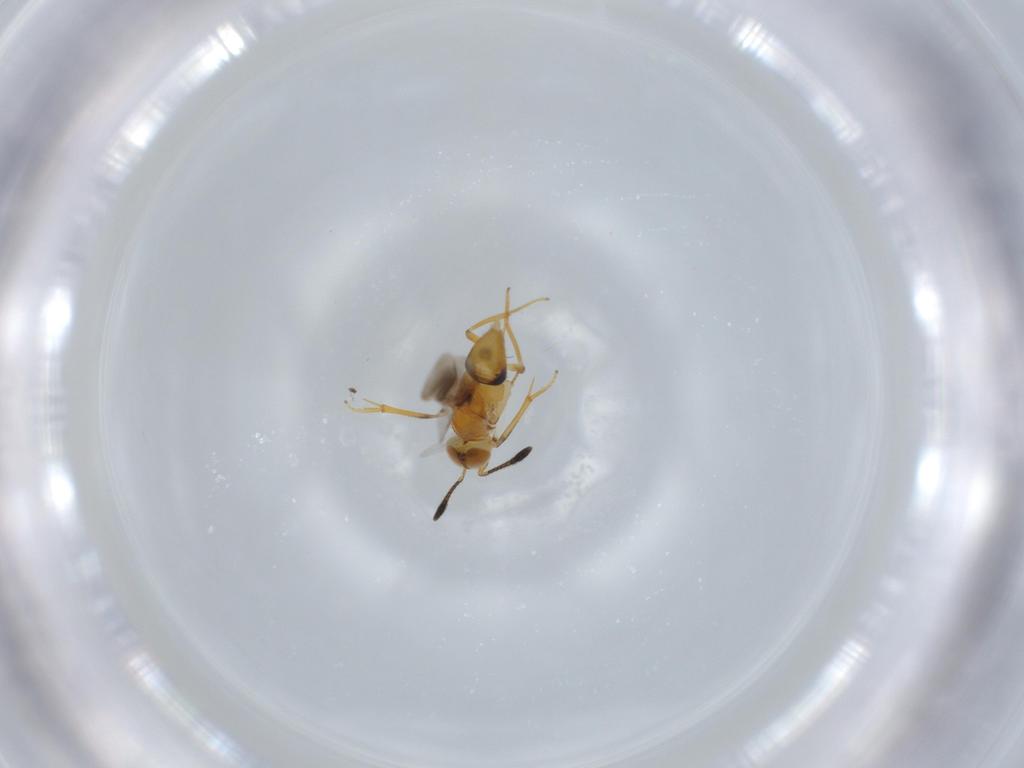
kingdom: Animalia
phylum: Arthropoda
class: Insecta
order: Hymenoptera
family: Encyrtidae
